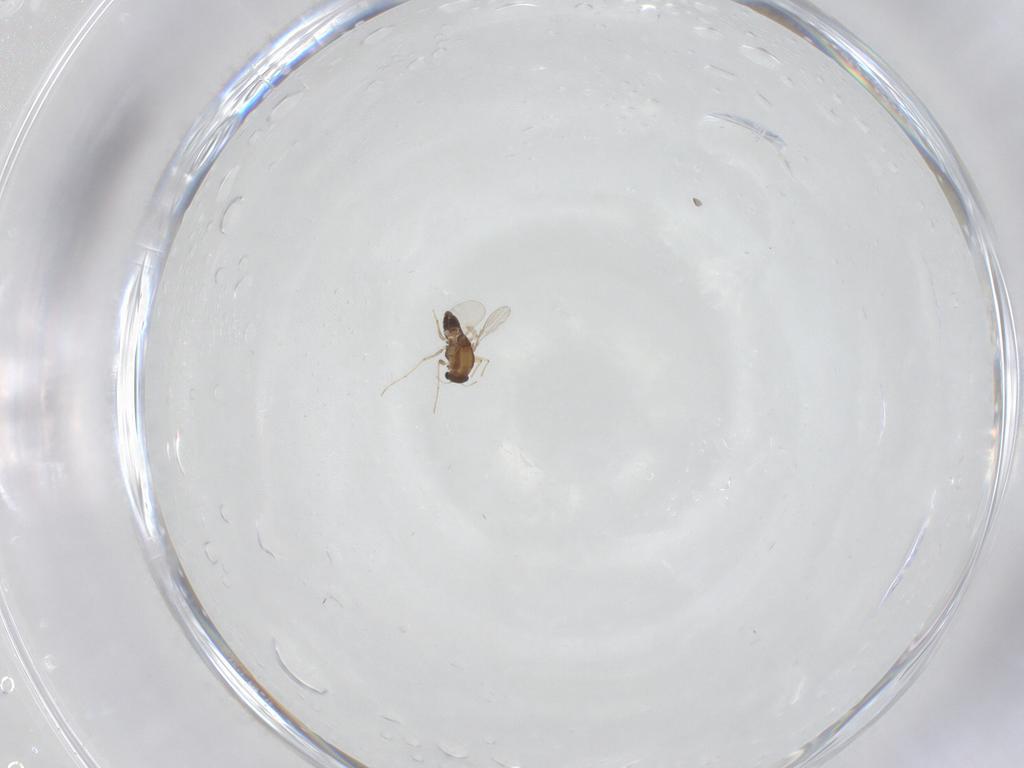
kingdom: Animalia
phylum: Arthropoda
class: Insecta
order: Diptera
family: Chironomidae
